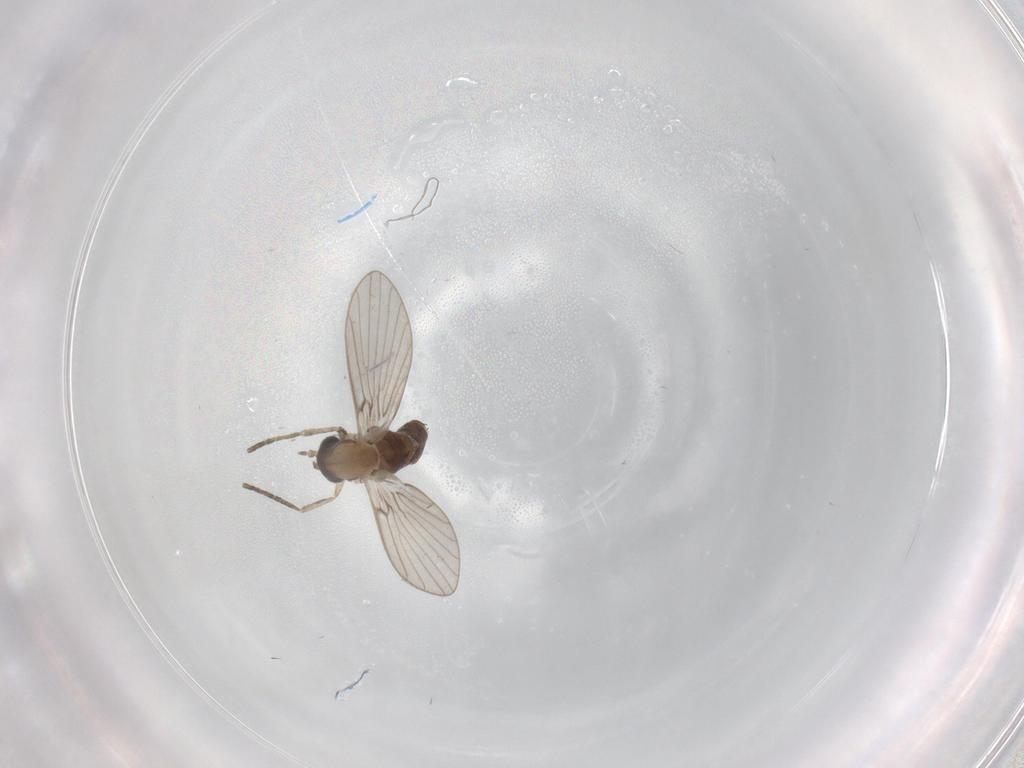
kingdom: Animalia
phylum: Arthropoda
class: Insecta
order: Diptera
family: Psychodidae
